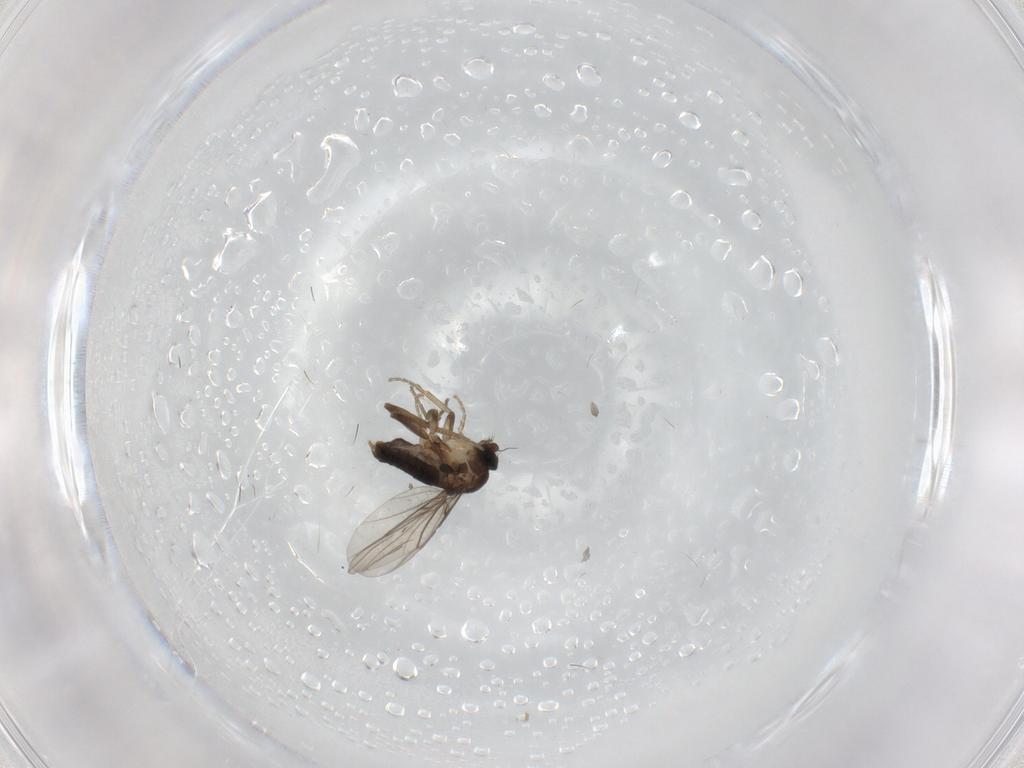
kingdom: Animalia
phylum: Arthropoda
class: Insecta
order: Diptera
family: Phoridae
